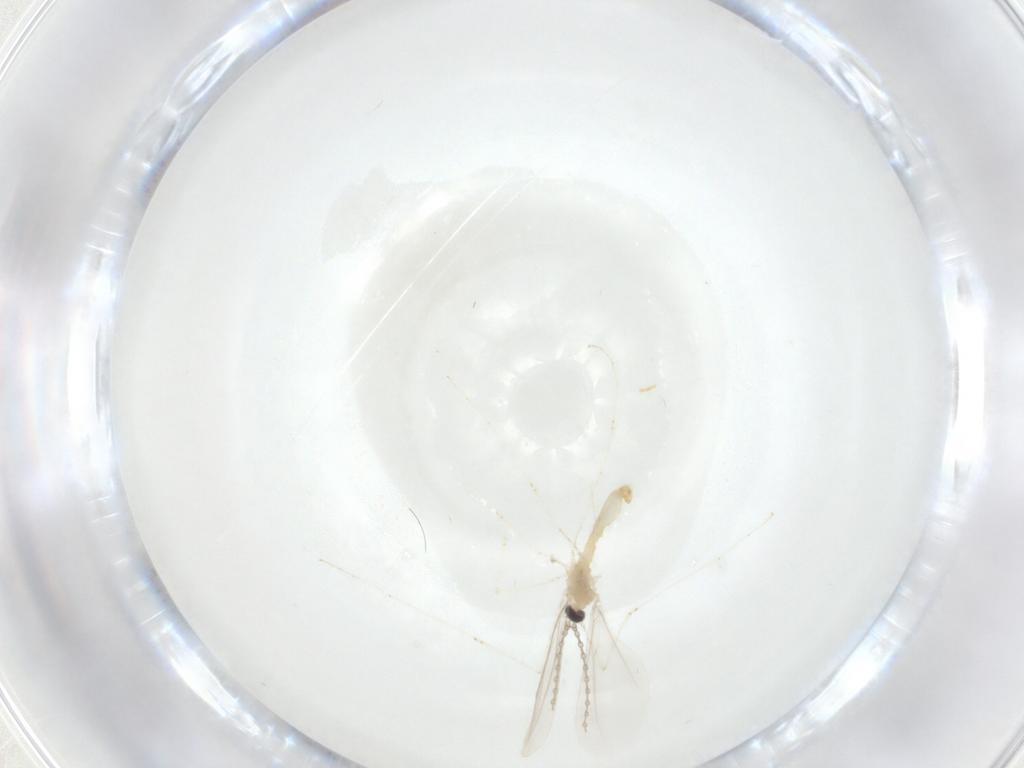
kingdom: Animalia
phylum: Arthropoda
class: Insecta
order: Diptera
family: Cecidomyiidae
